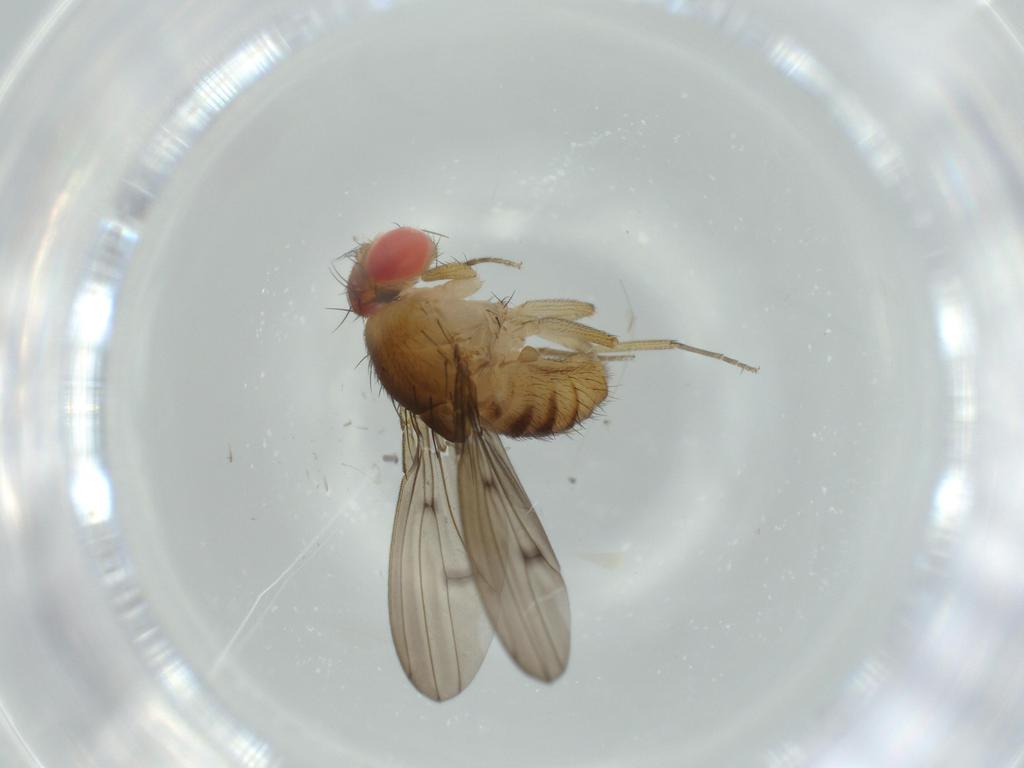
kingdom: Animalia
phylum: Arthropoda
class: Insecta
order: Diptera
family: Drosophilidae
